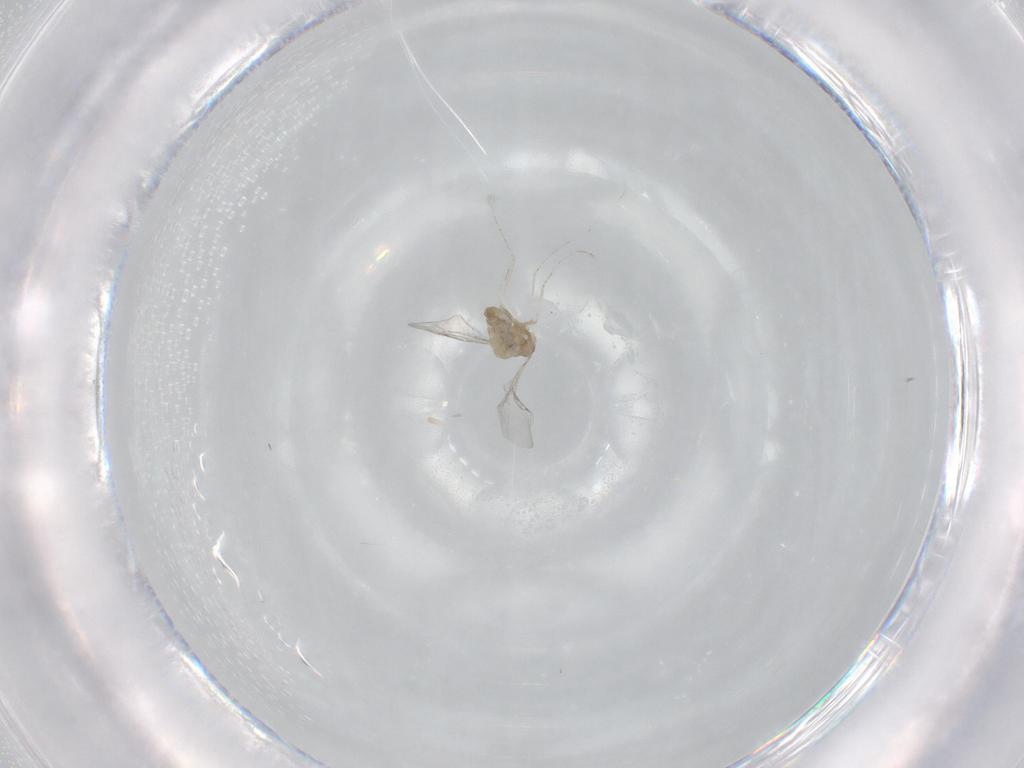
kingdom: Animalia
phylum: Arthropoda
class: Insecta
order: Diptera
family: Cecidomyiidae
